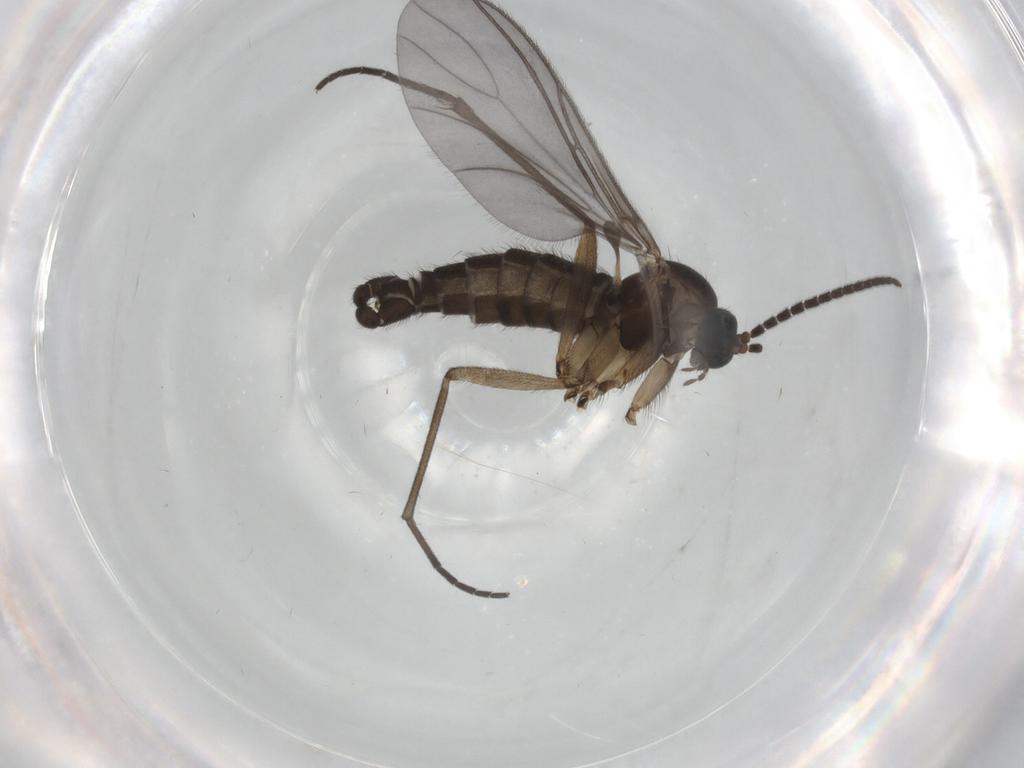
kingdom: Animalia
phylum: Arthropoda
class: Insecta
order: Diptera
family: Sciaridae
